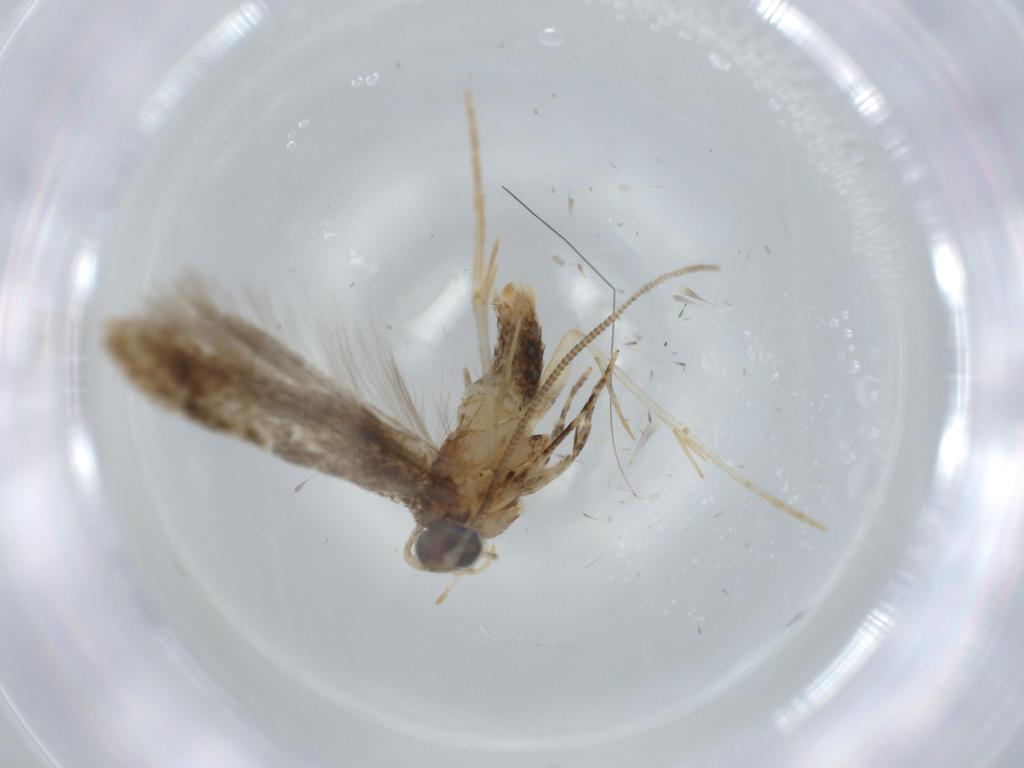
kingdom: Animalia
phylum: Arthropoda
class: Insecta
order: Lepidoptera
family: Tineidae
